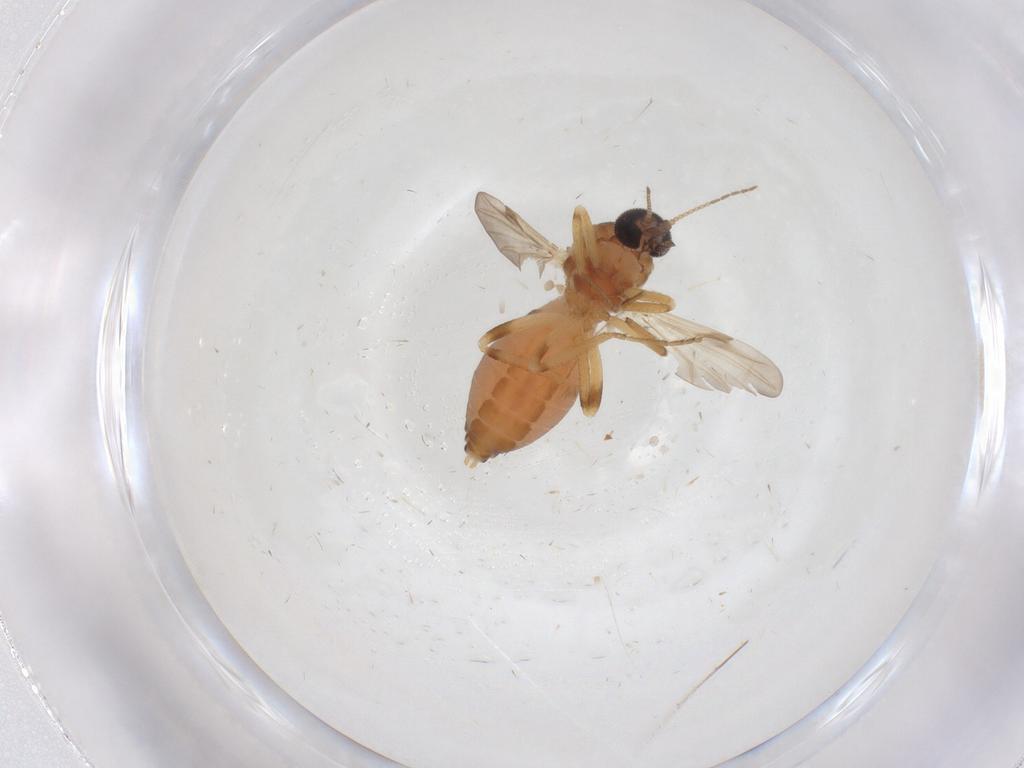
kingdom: Animalia
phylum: Arthropoda
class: Insecta
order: Diptera
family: Ceratopogonidae
